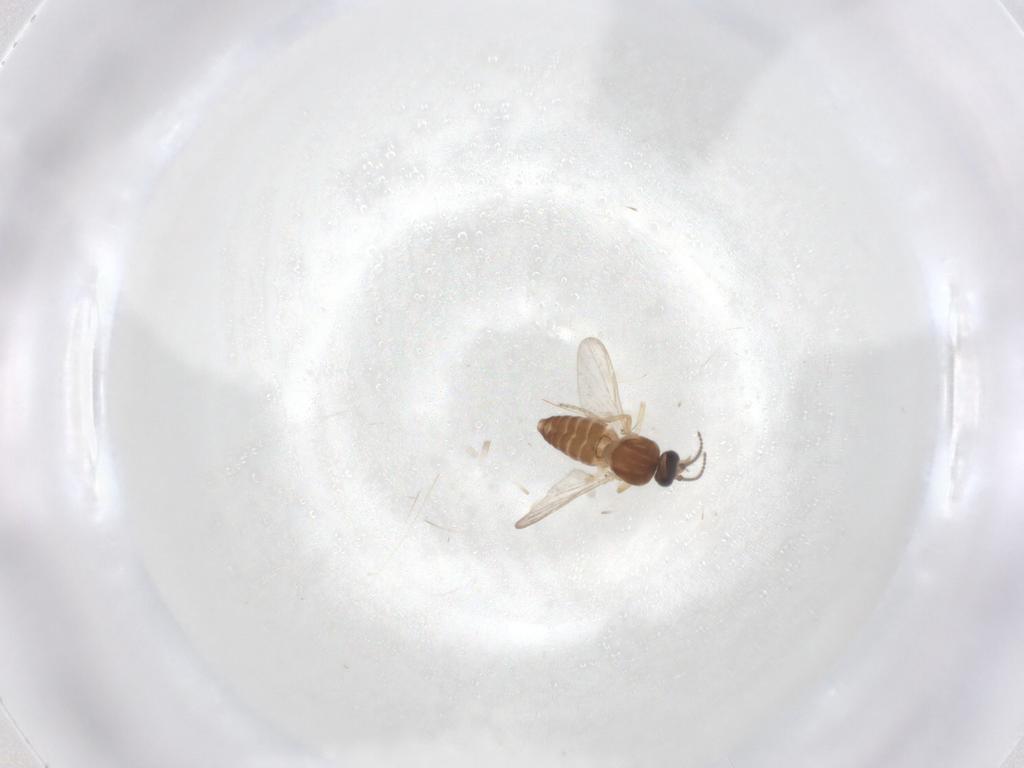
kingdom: Animalia
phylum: Arthropoda
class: Insecta
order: Diptera
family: Ceratopogonidae
